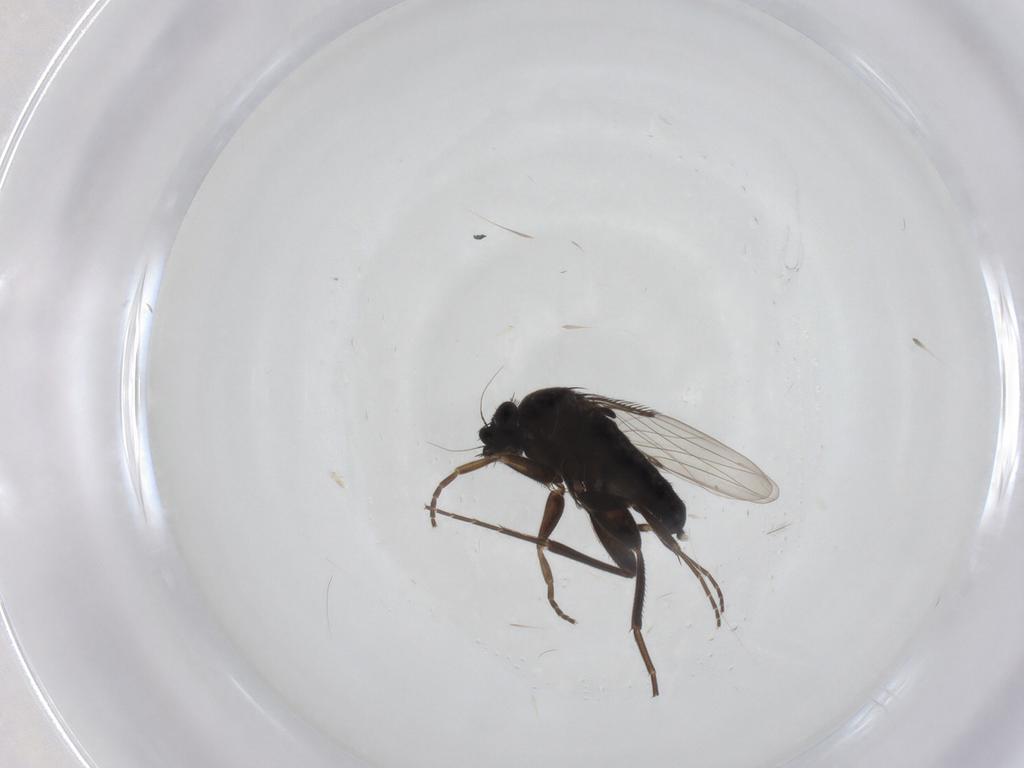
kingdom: Animalia
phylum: Arthropoda
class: Insecta
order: Diptera
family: Phoridae
